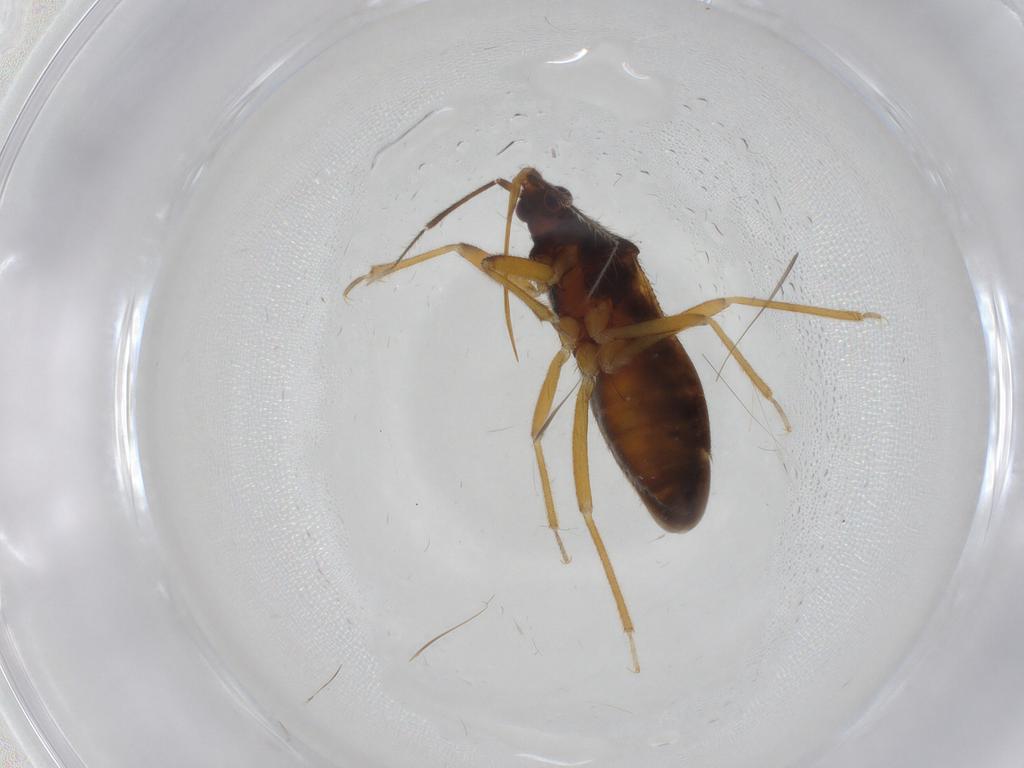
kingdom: Animalia
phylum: Arthropoda
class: Insecta
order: Hemiptera
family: Anthocoridae
